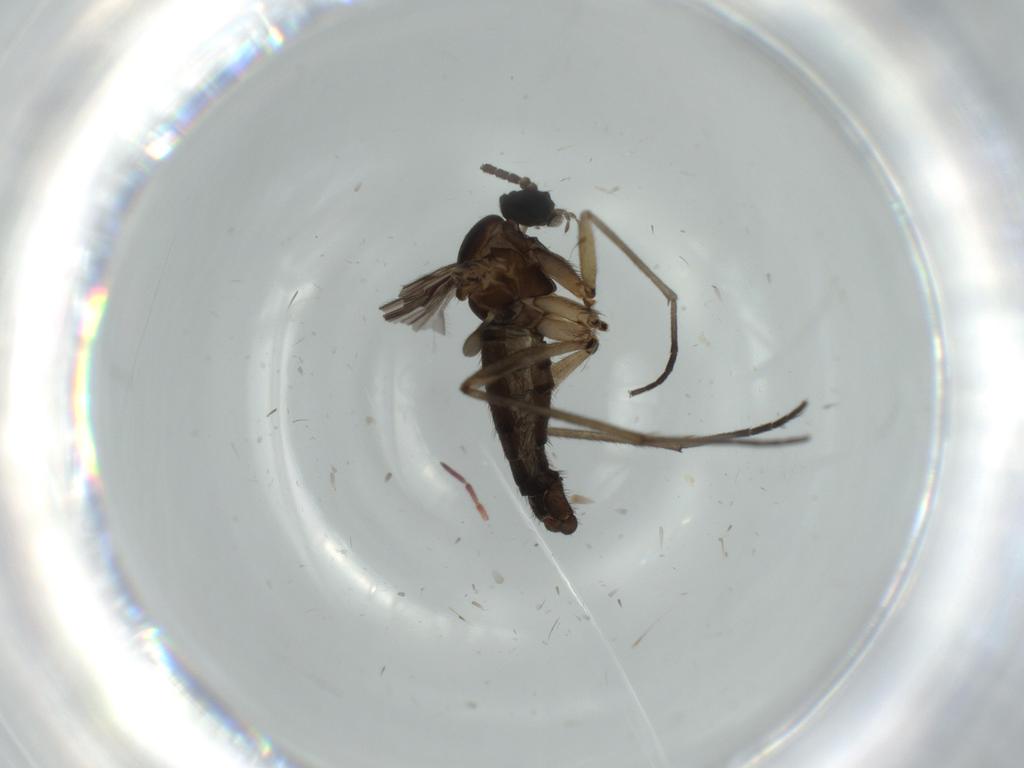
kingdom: Animalia
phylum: Arthropoda
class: Insecta
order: Diptera
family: Sciaridae
